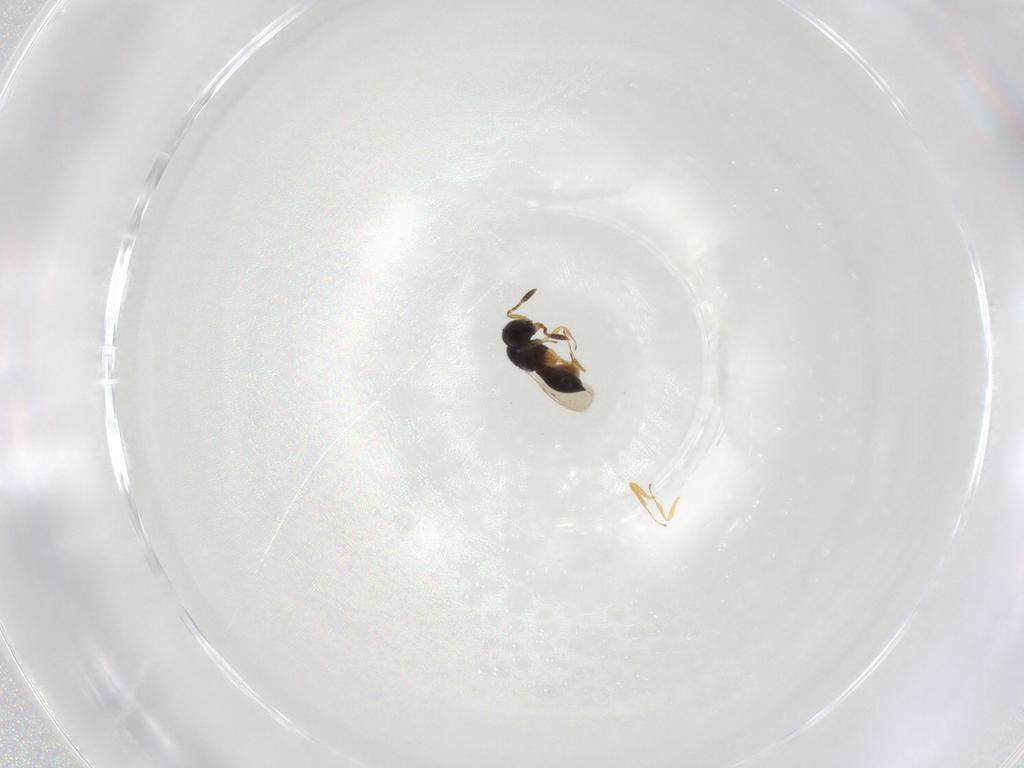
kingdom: Animalia
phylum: Arthropoda
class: Insecta
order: Hymenoptera
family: Scelionidae
